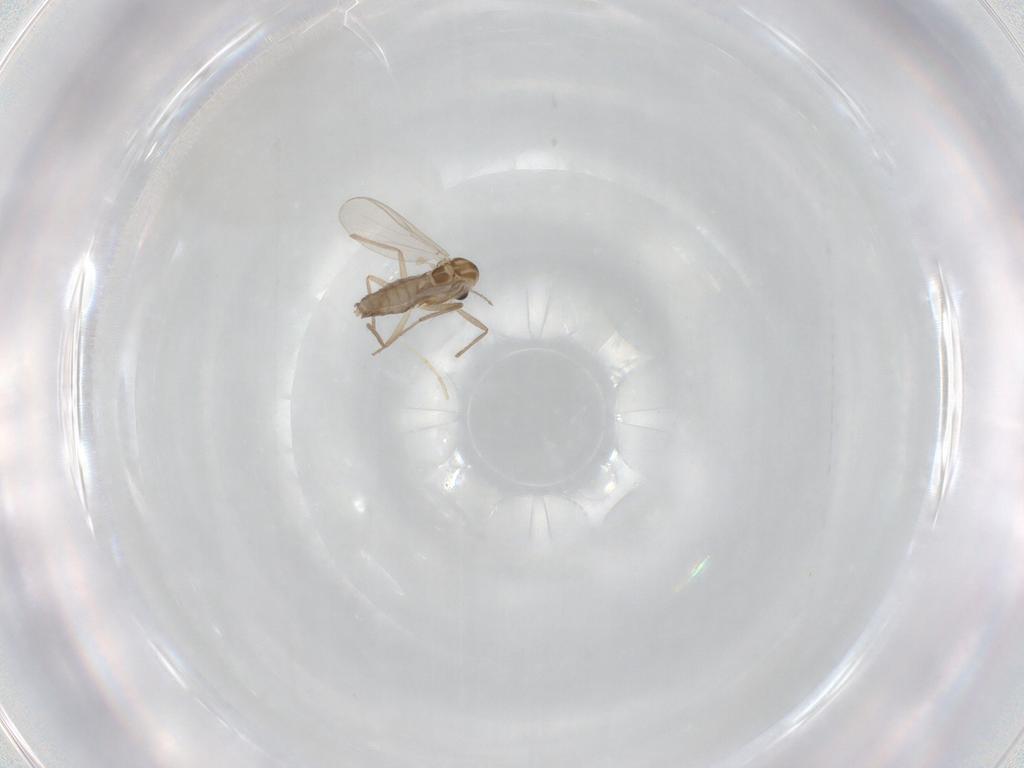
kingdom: Animalia
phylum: Arthropoda
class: Insecta
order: Diptera
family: Chironomidae
